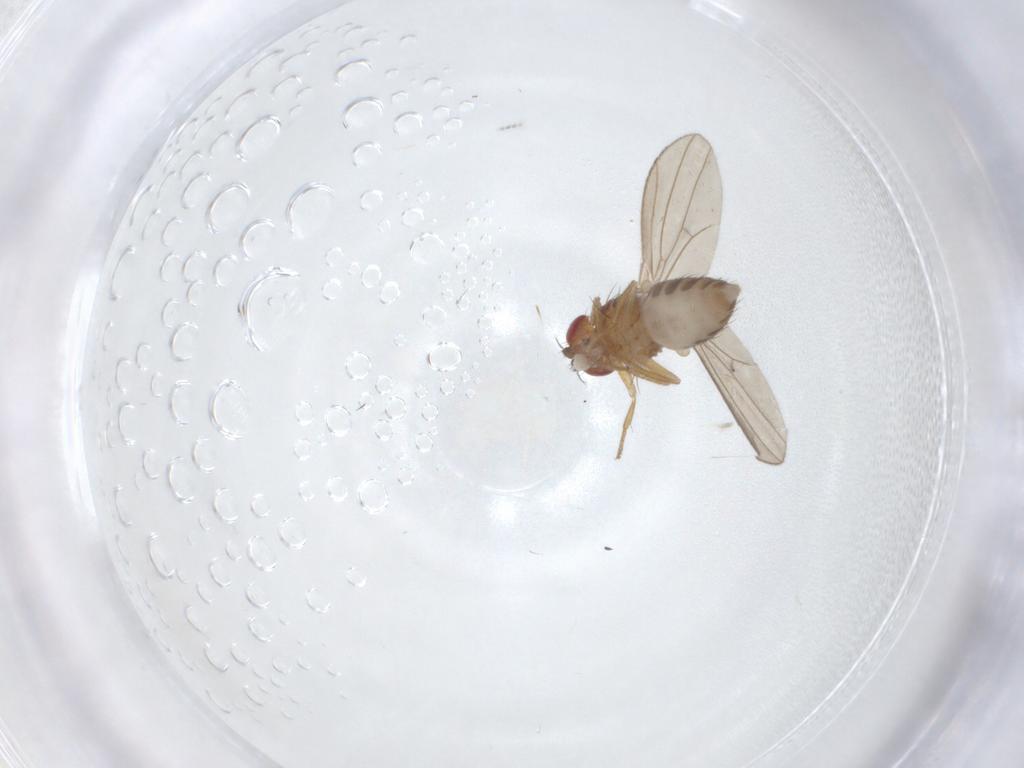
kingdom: Animalia
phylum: Arthropoda
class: Insecta
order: Diptera
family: Drosophilidae
